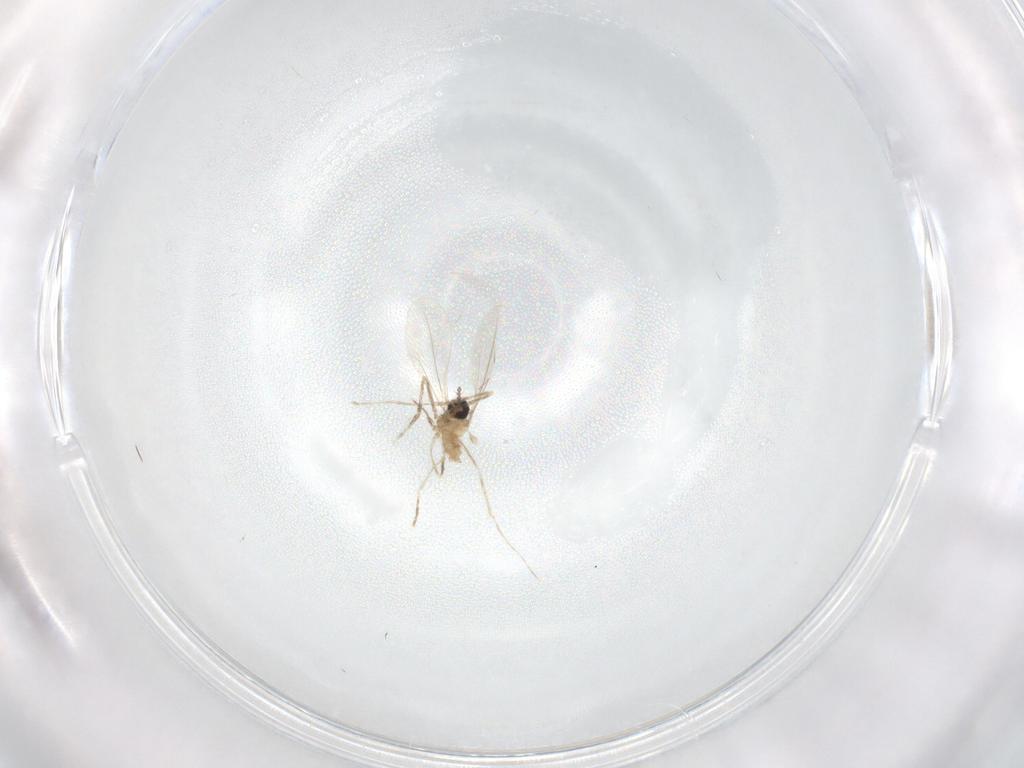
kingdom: Animalia
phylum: Arthropoda
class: Insecta
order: Diptera
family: Cecidomyiidae
